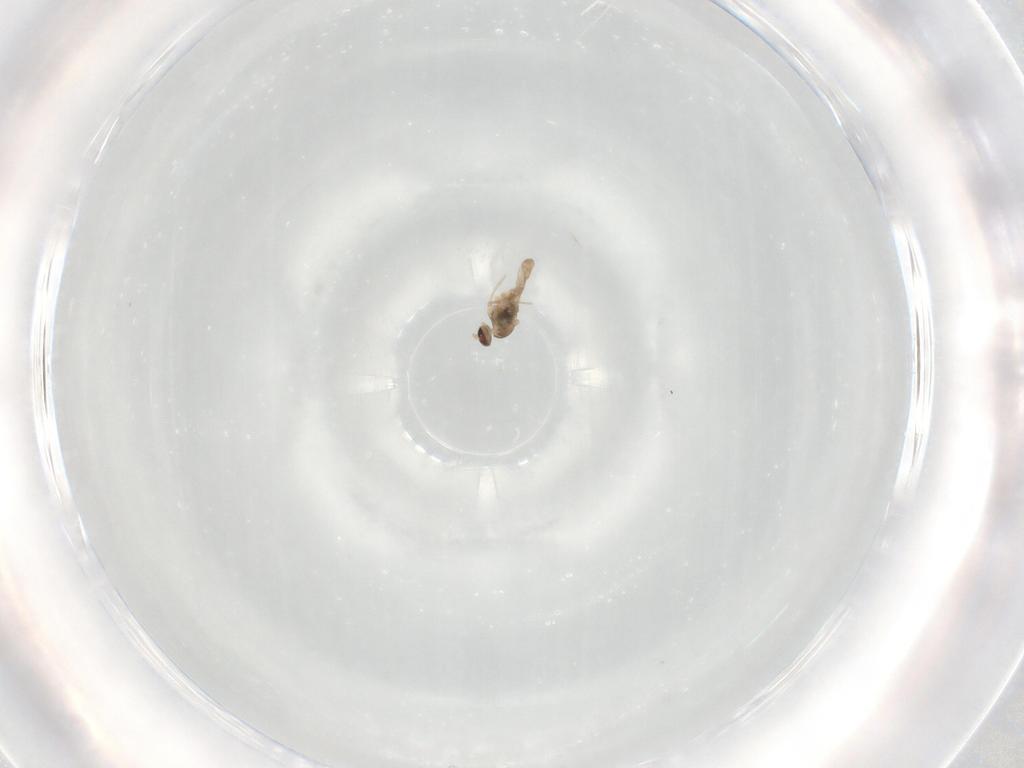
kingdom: Animalia
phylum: Arthropoda
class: Insecta
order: Diptera
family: Cecidomyiidae
